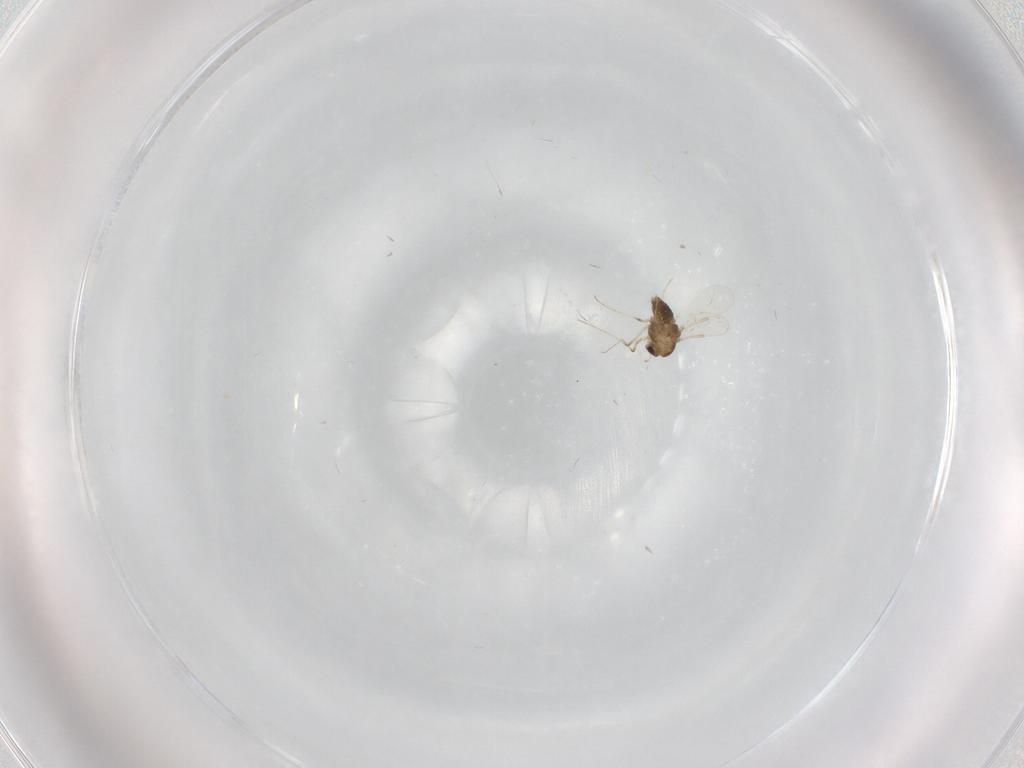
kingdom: Animalia
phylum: Arthropoda
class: Insecta
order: Diptera
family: Chironomidae
